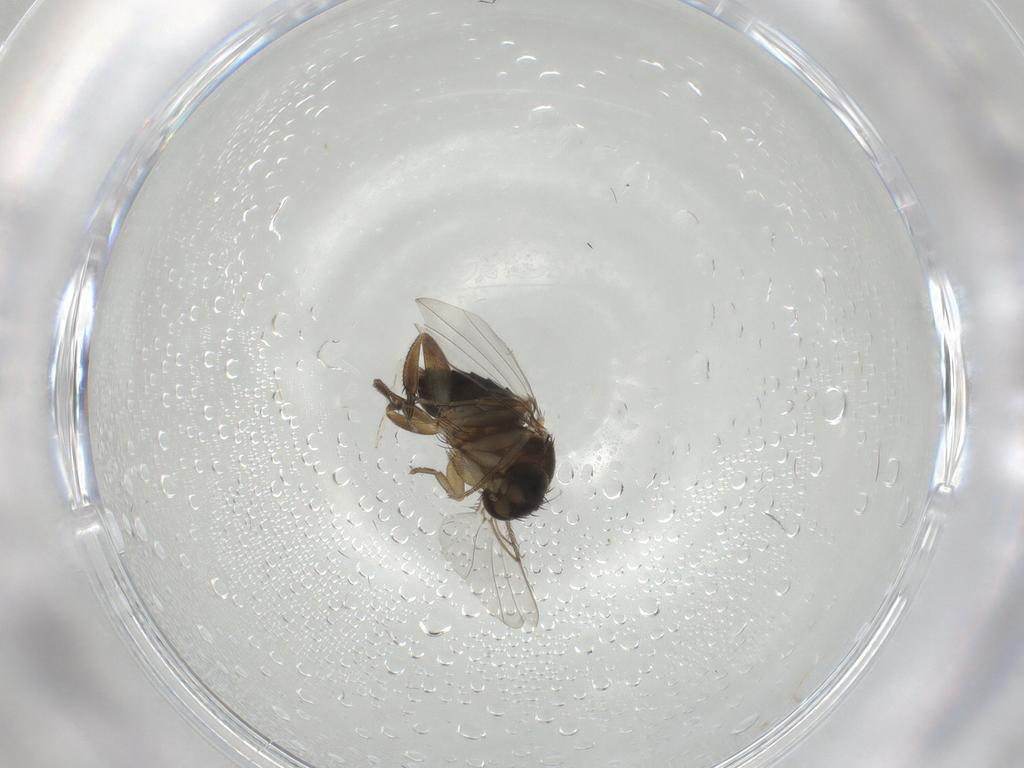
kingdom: Animalia
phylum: Arthropoda
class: Insecta
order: Diptera
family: Phoridae
